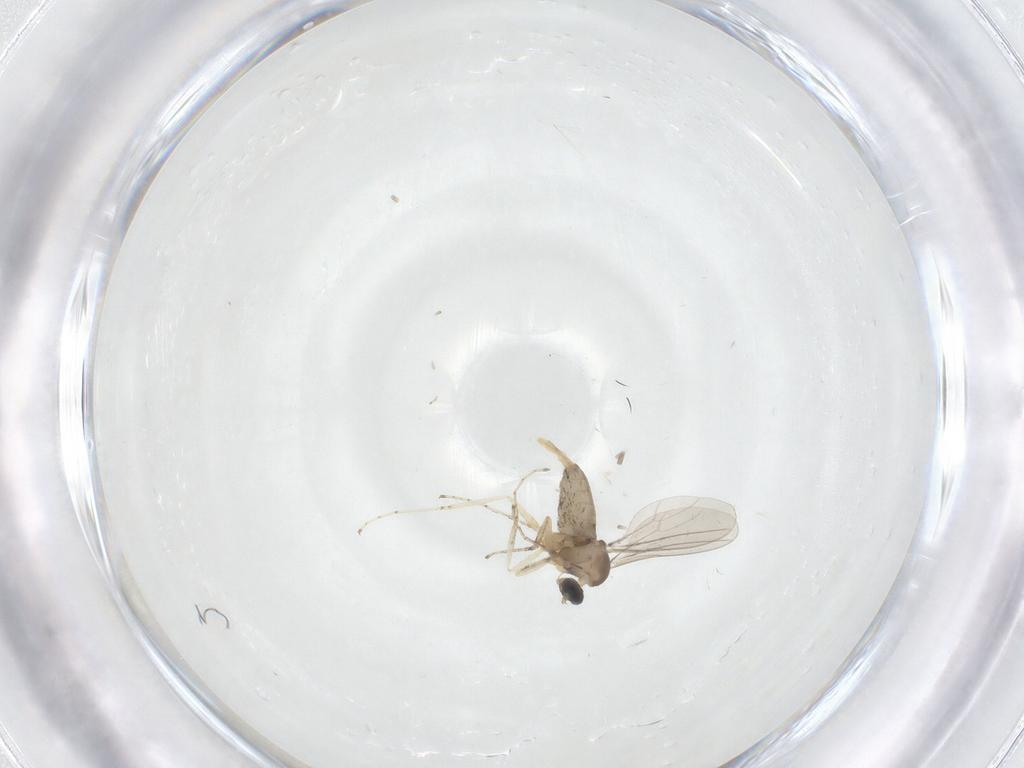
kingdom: Animalia
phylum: Arthropoda
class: Insecta
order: Diptera
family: Cecidomyiidae
